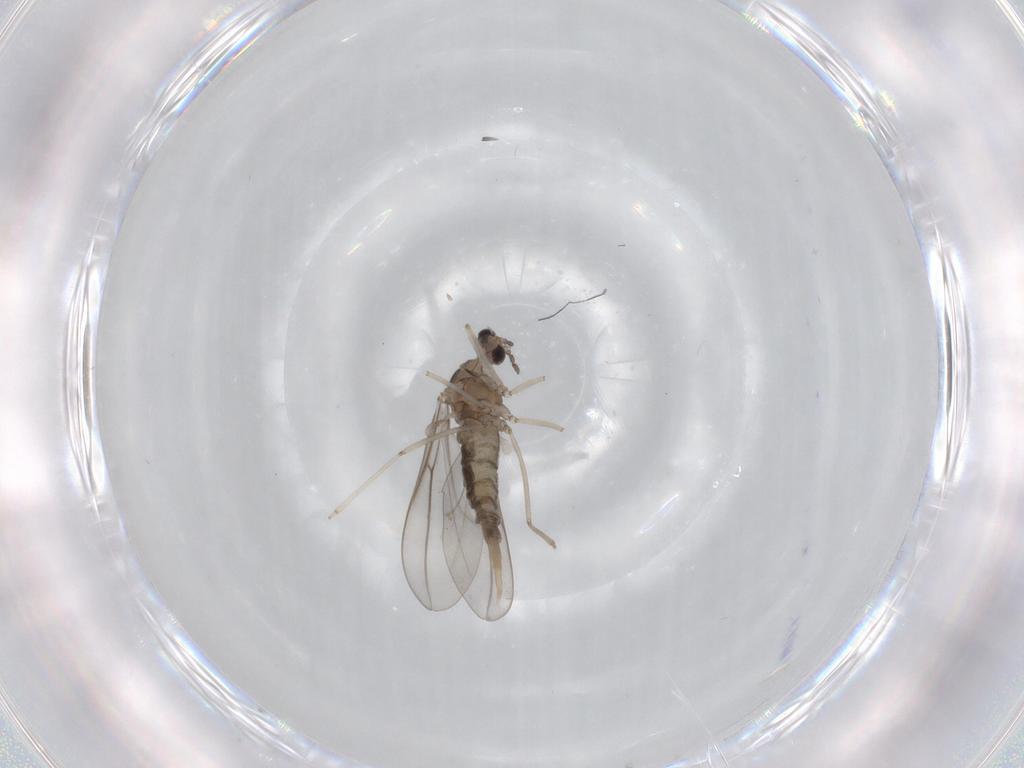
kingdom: Animalia
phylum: Arthropoda
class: Insecta
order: Diptera
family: Cecidomyiidae
